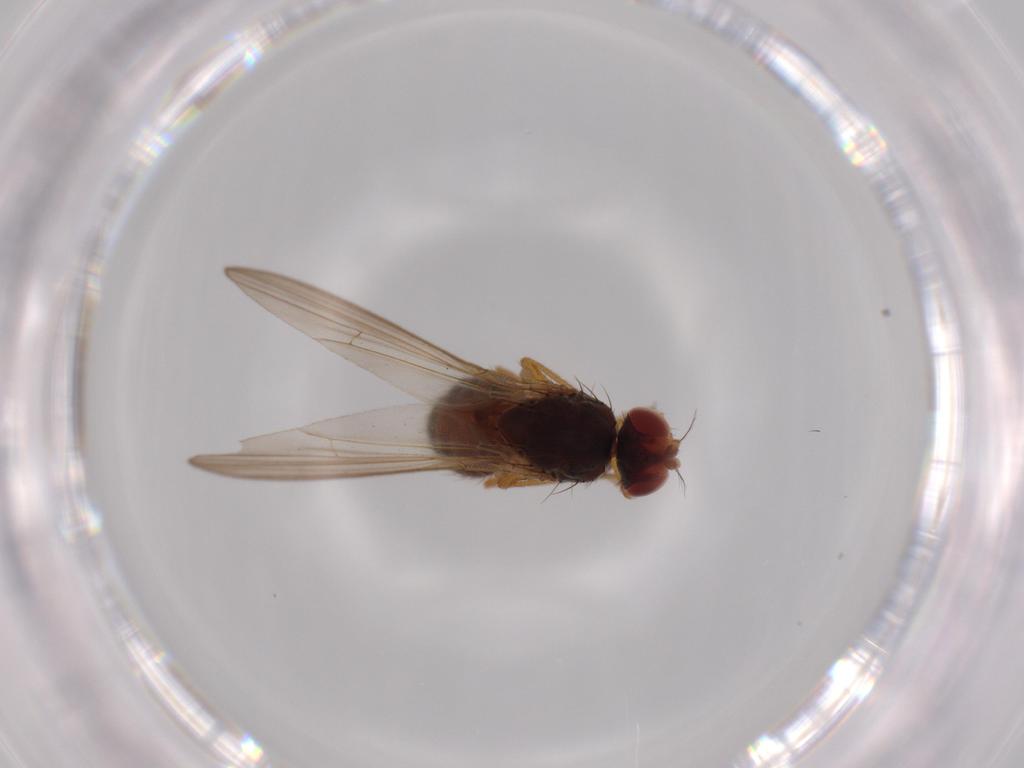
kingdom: Animalia
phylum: Arthropoda
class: Insecta
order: Diptera
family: Drosophilidae
